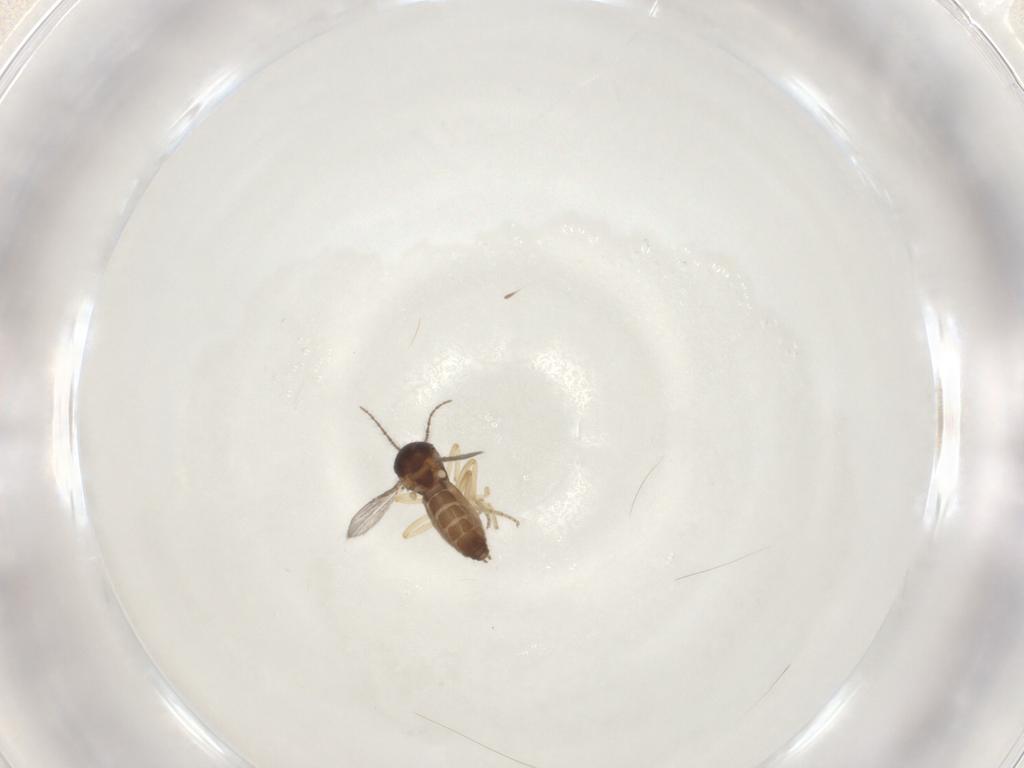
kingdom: Animalia
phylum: Arthropoda
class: Insecta
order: Diptera
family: Ceratopogonidae
